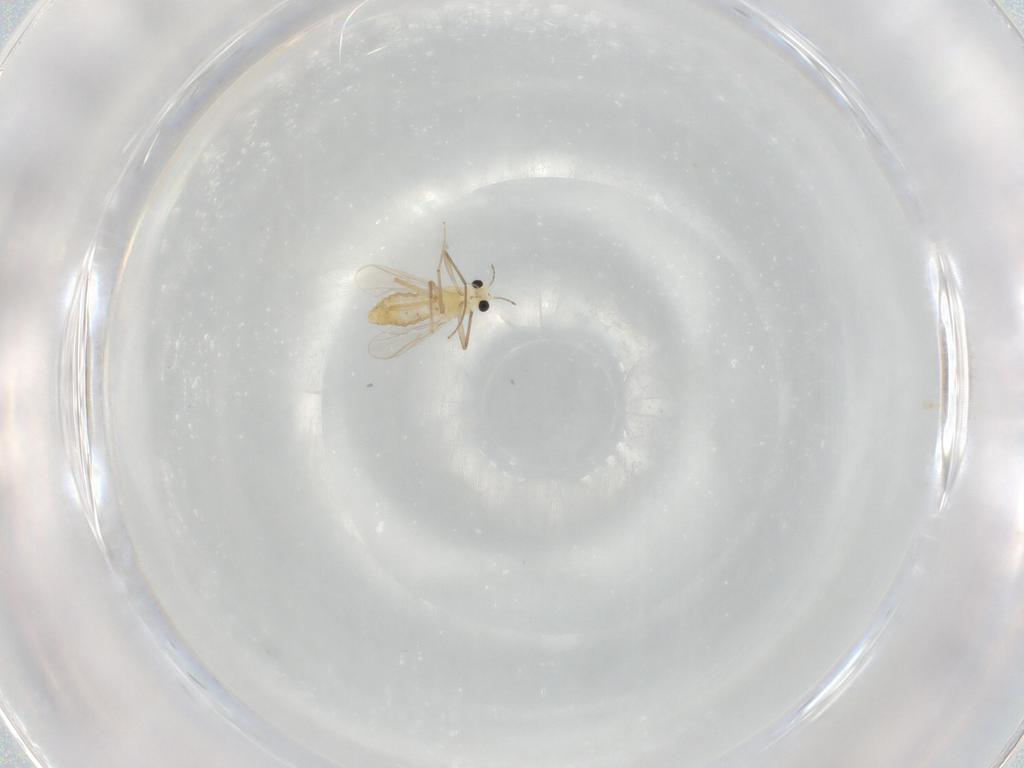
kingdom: Animalia
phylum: Arthropoda
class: Insecta
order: Diptera
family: Chironomidae
